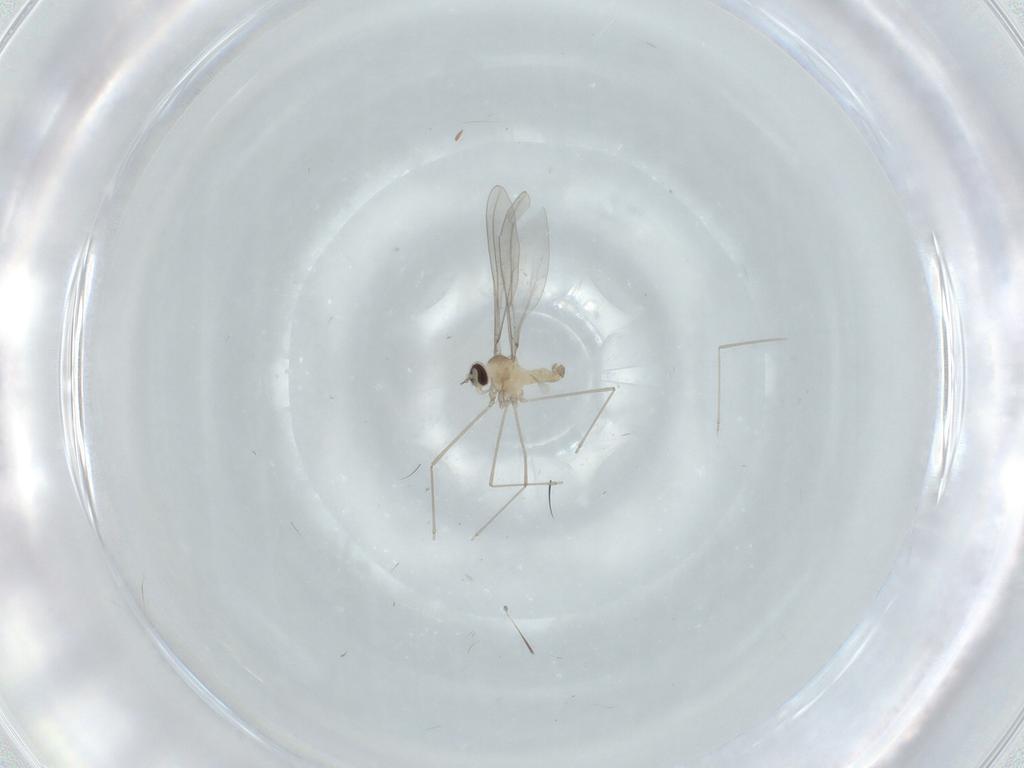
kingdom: Animalia
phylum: Arthropoda
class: Insecta
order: Diptera
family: Cecidomyiidae
